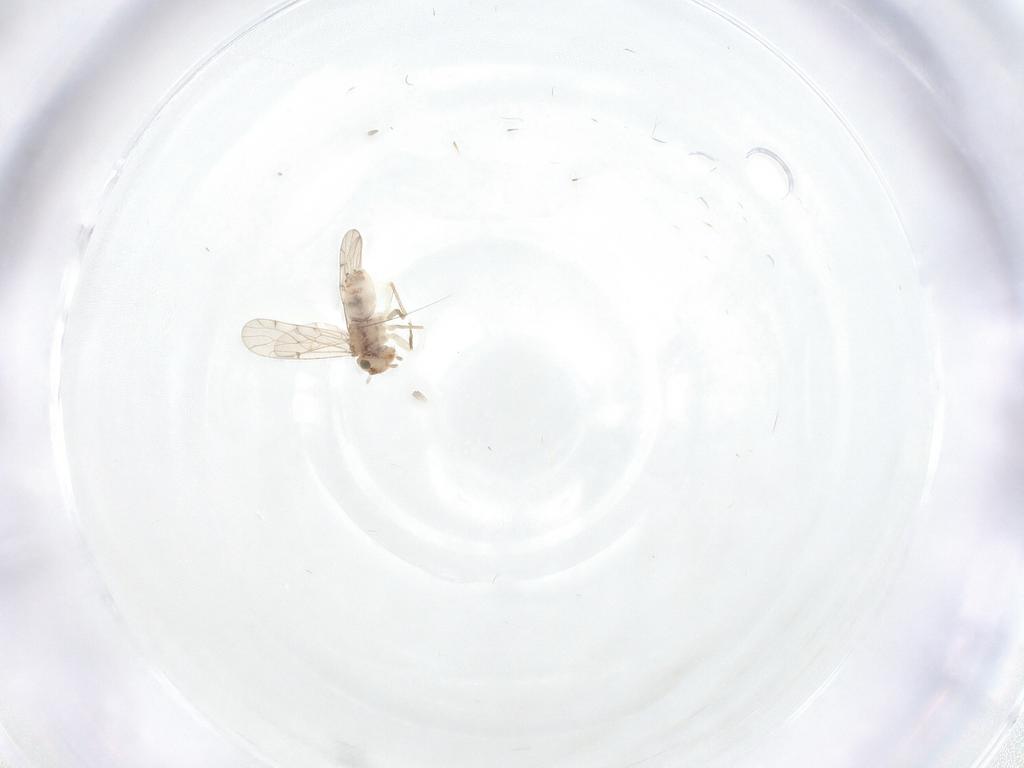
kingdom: Animalia
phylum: Arthropoda
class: Insecta
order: Psocodea
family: Ectopsocidae
